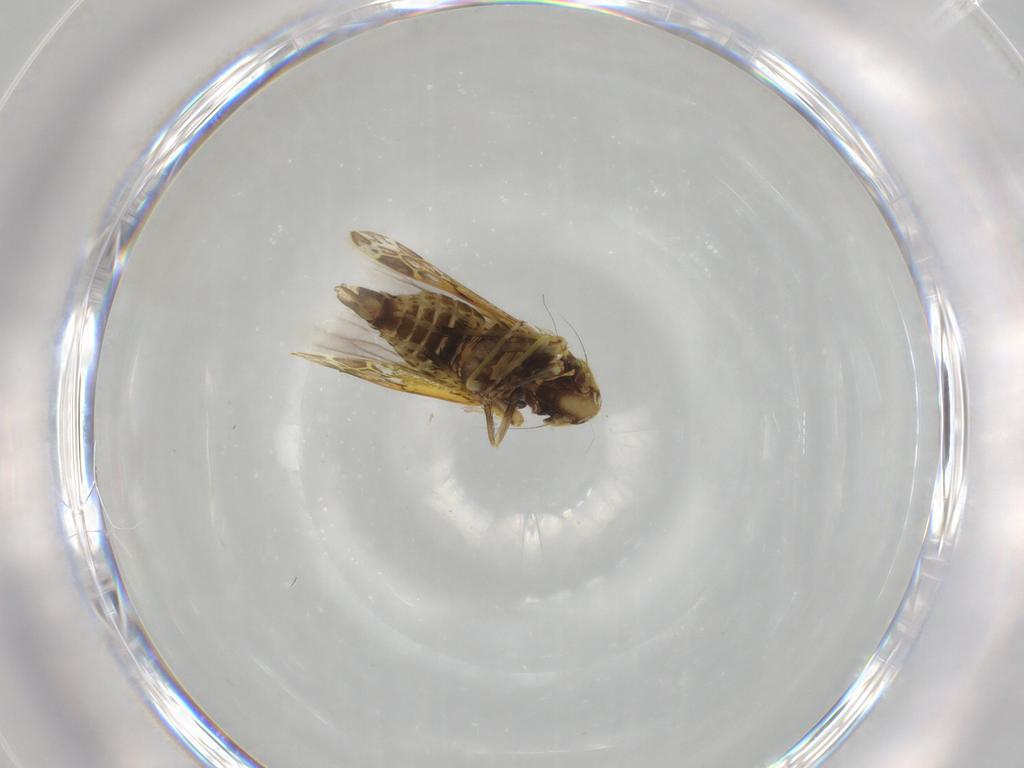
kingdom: Animalia
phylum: Arthropoda
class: Insecta
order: Hemiptera
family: Cicadellidae
